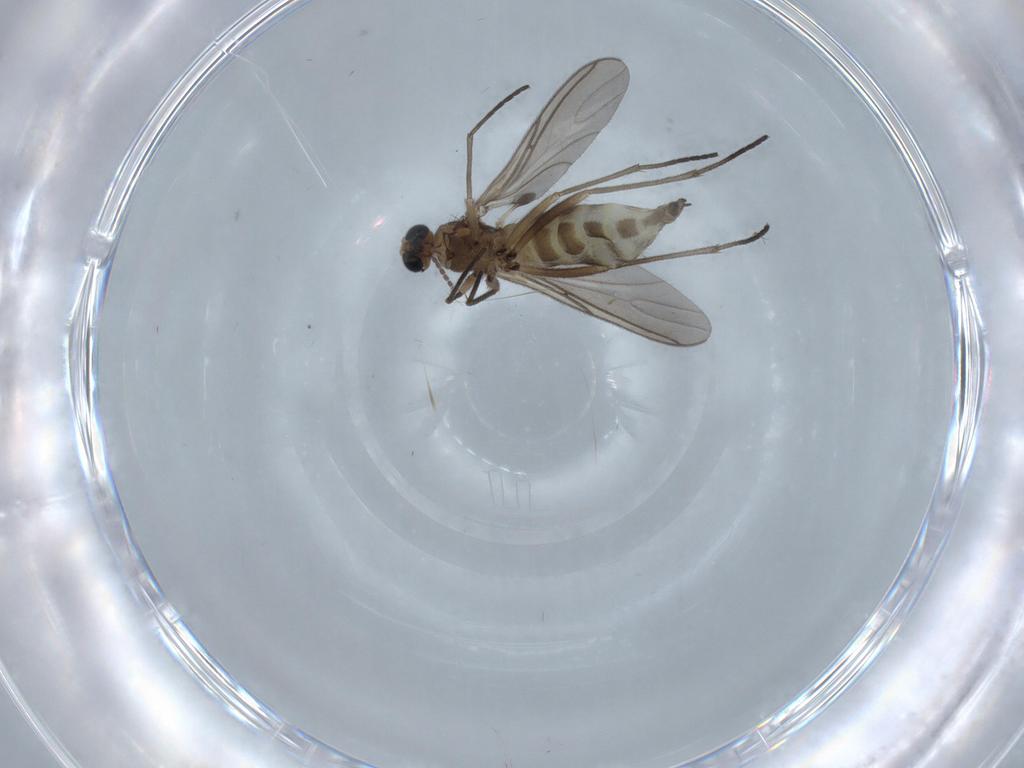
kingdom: Animalia
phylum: Arthropoda
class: Insecta
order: Diptera
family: Sciaridae
